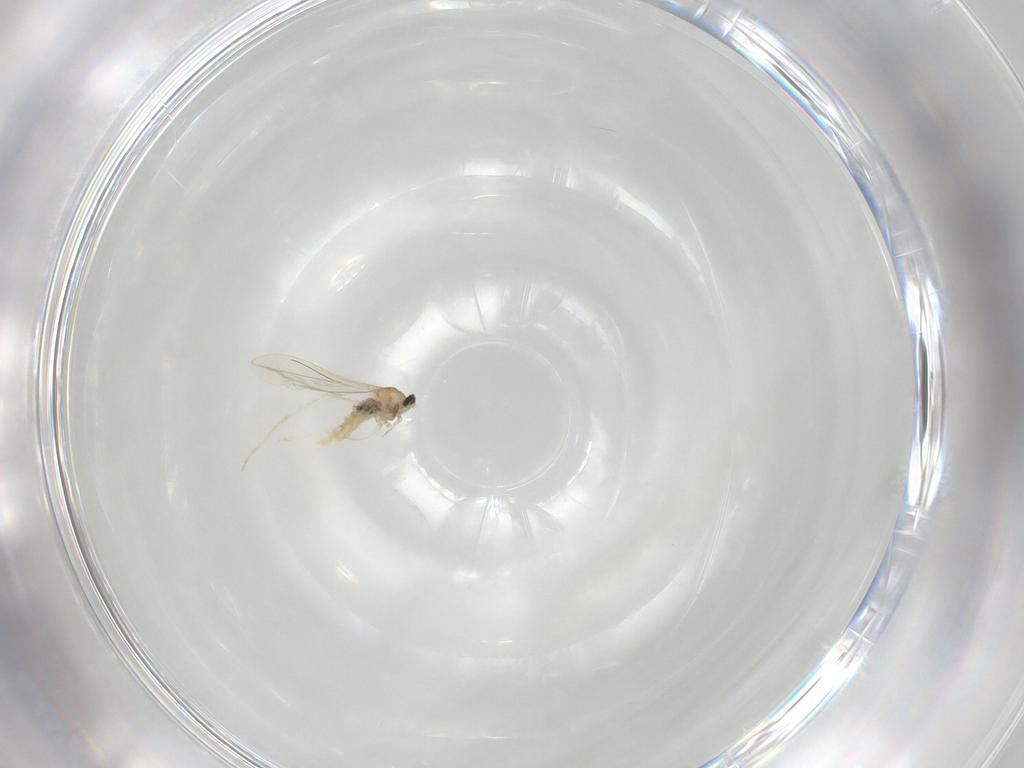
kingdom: Animalia
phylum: Arthropoda
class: Insecta
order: Diptera
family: Cecidomyiidae
